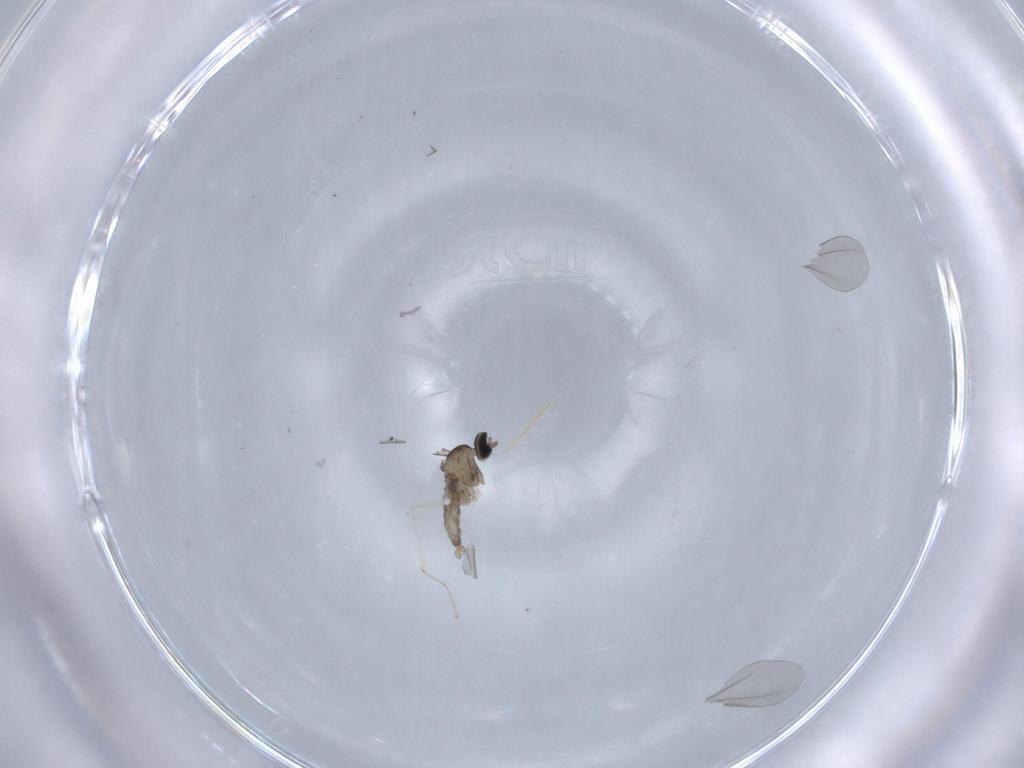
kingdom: Animalia
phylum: Arthropoda
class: Insecta
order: Diptera
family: Cecidomyiidae
